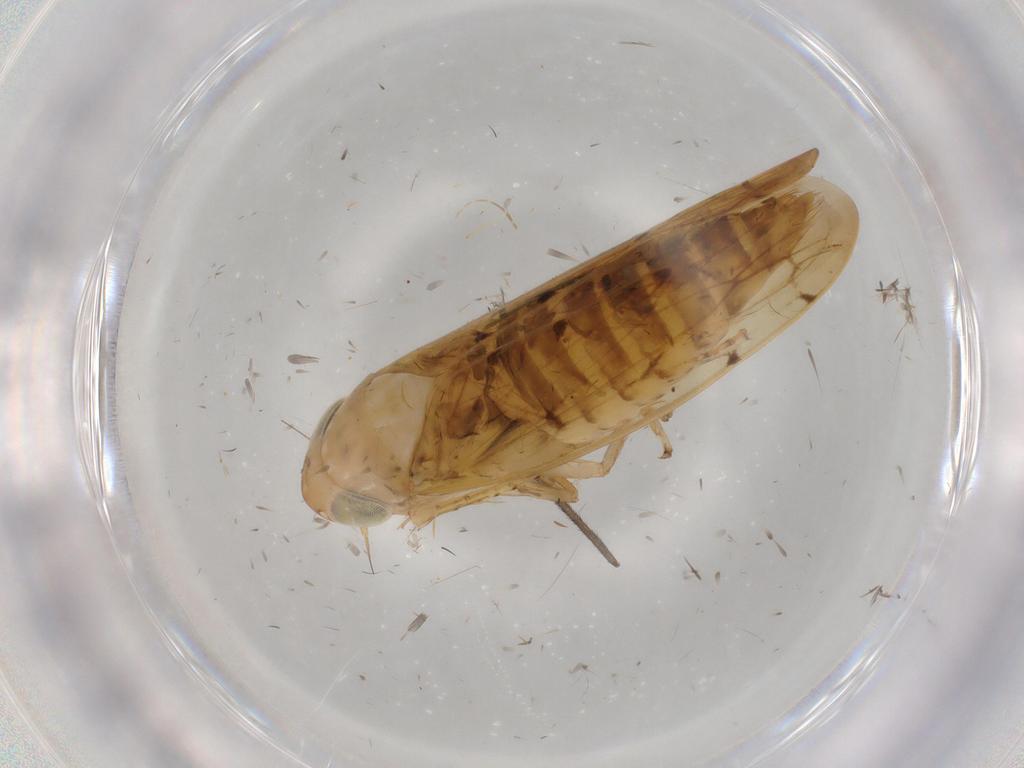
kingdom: Animalia
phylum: Arthropoda
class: Insecta
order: Hemiptera
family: Cicadellidae
